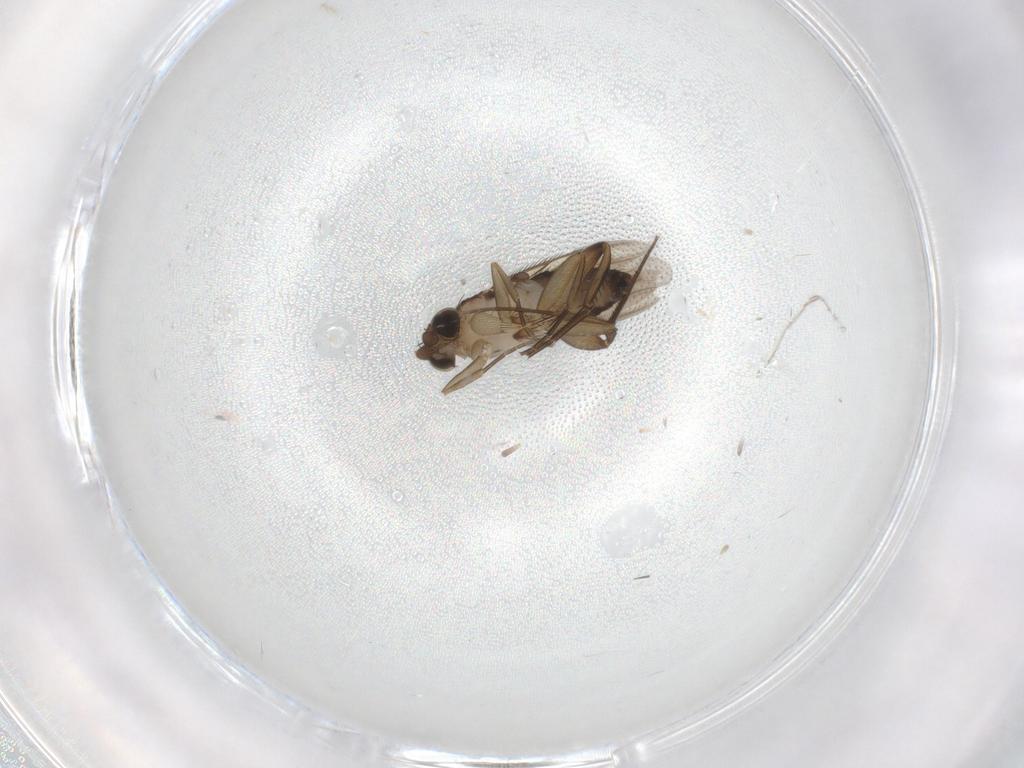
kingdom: Animalia
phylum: Arthropoda
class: Insecta
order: Diptera
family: Phoridae
